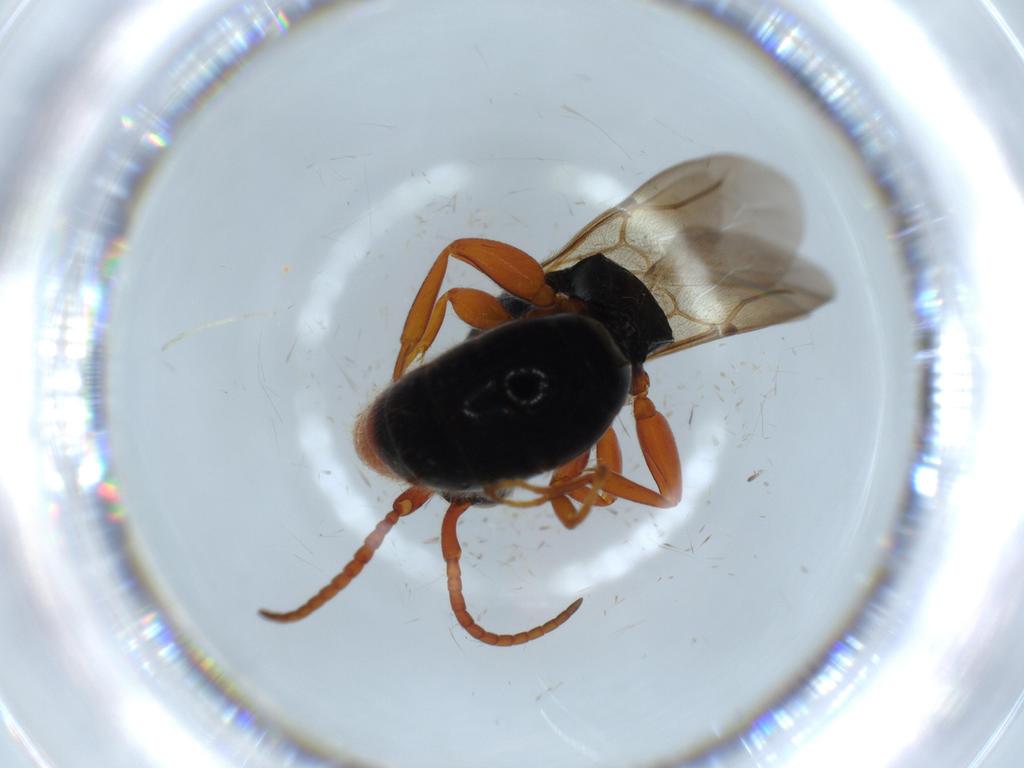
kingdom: Animalia
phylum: Arthropoda
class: Insecta
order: Hymenoptera
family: Bethylidae
